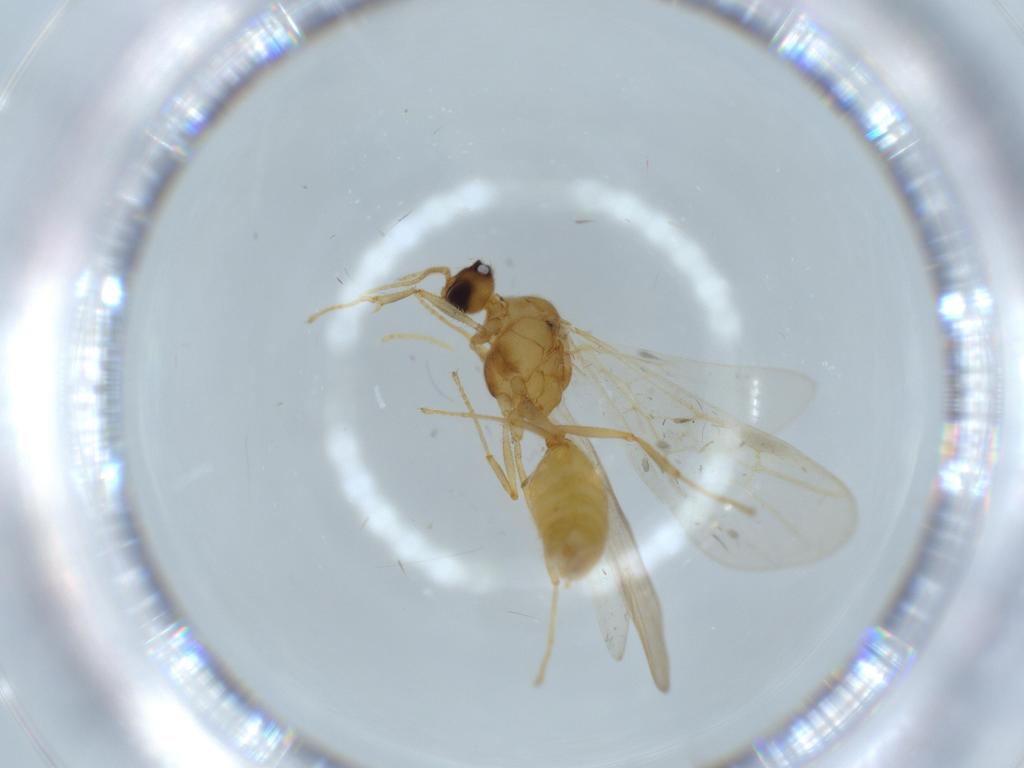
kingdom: Animalia
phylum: Arthropoda
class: Insecta
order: Hymenoptera
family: Formicidae
